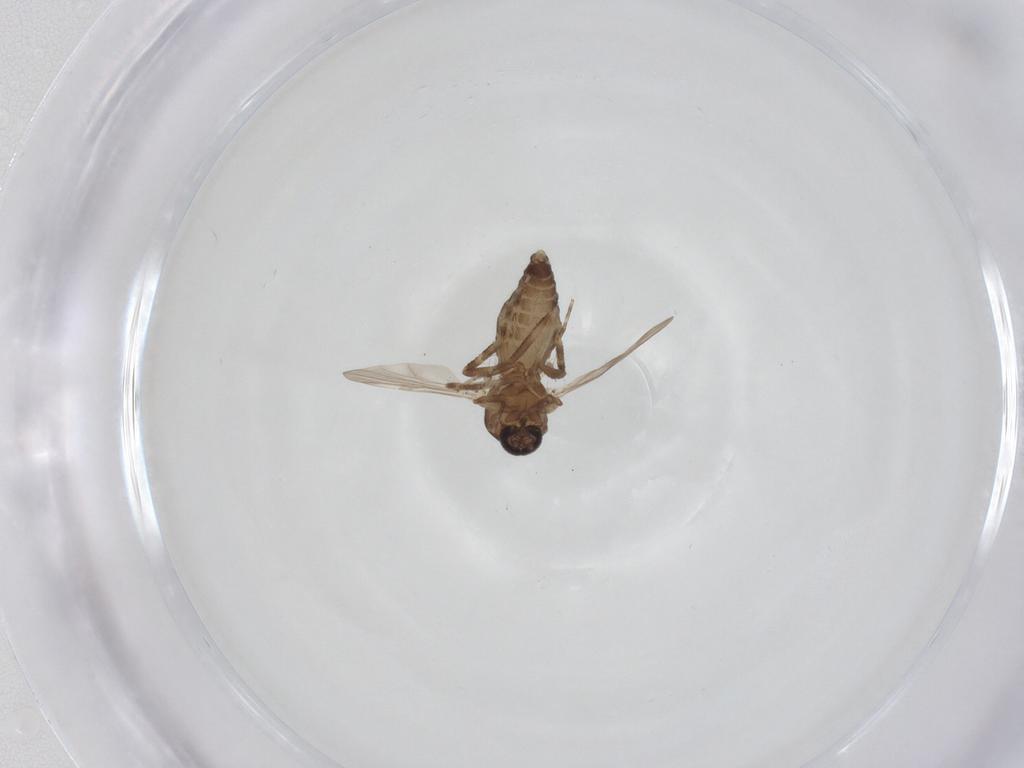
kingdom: Animalia
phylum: Arthropoda
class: Insecta
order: Diptera
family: Ceratopogonidae
